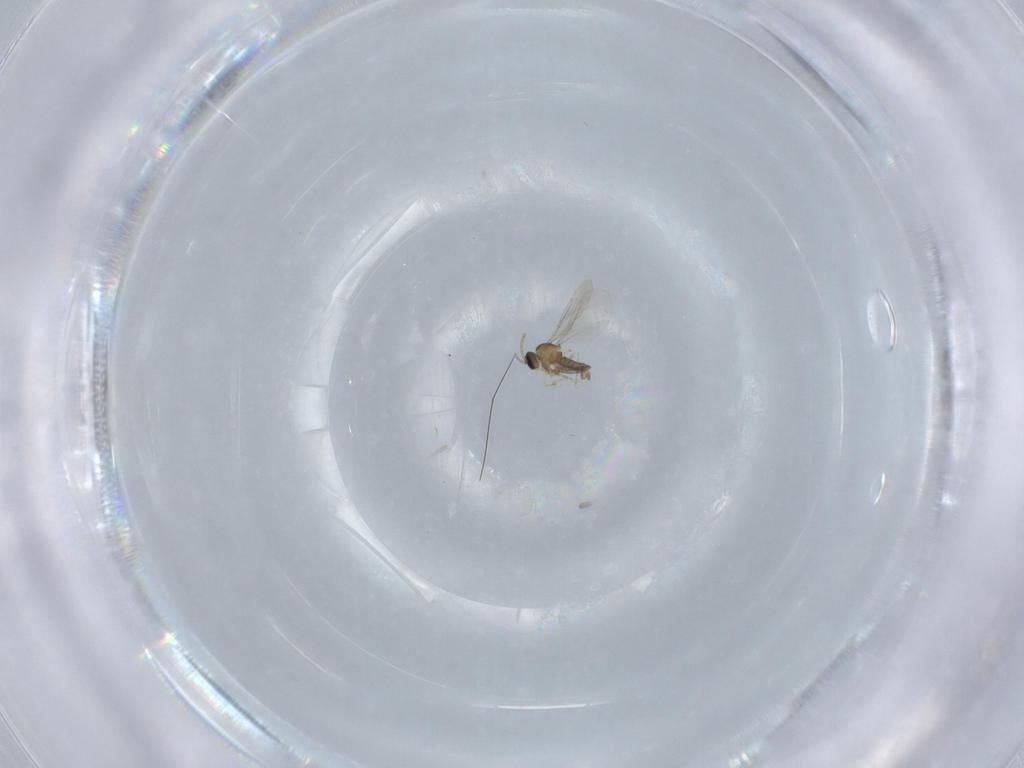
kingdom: Animalia
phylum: Arthropoda
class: Insecta
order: Diptera
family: Cecidomyiidae
